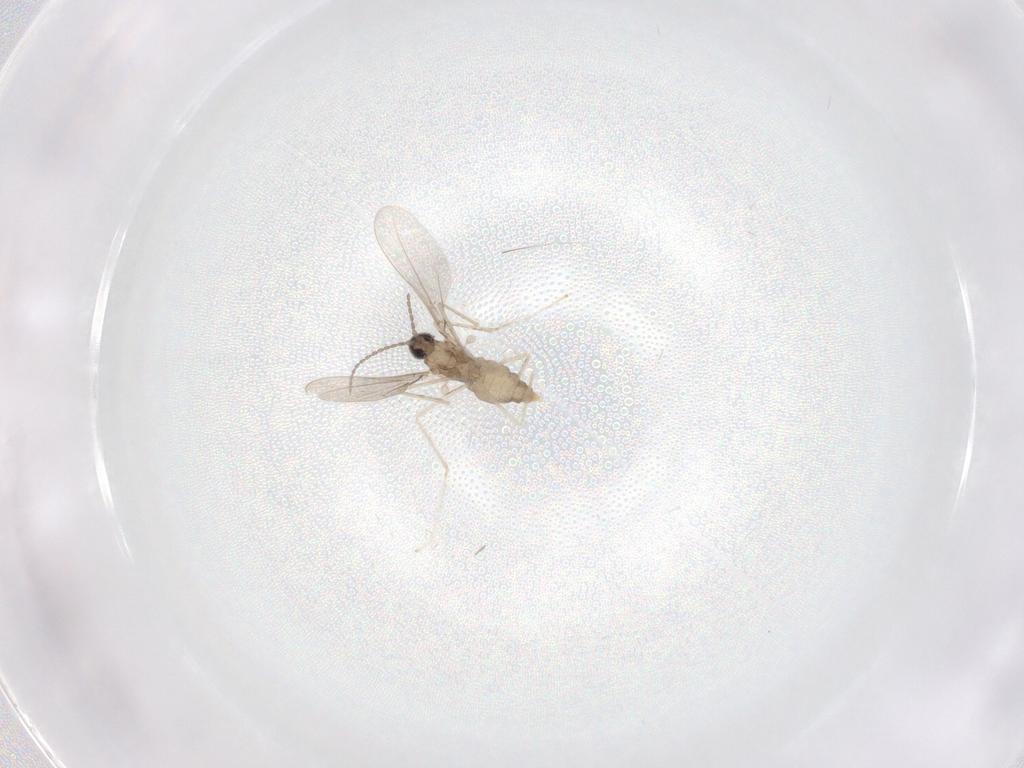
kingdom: Animalia
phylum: Arthropoda
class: Insecta
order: Diptera
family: Cecidomyiidae
